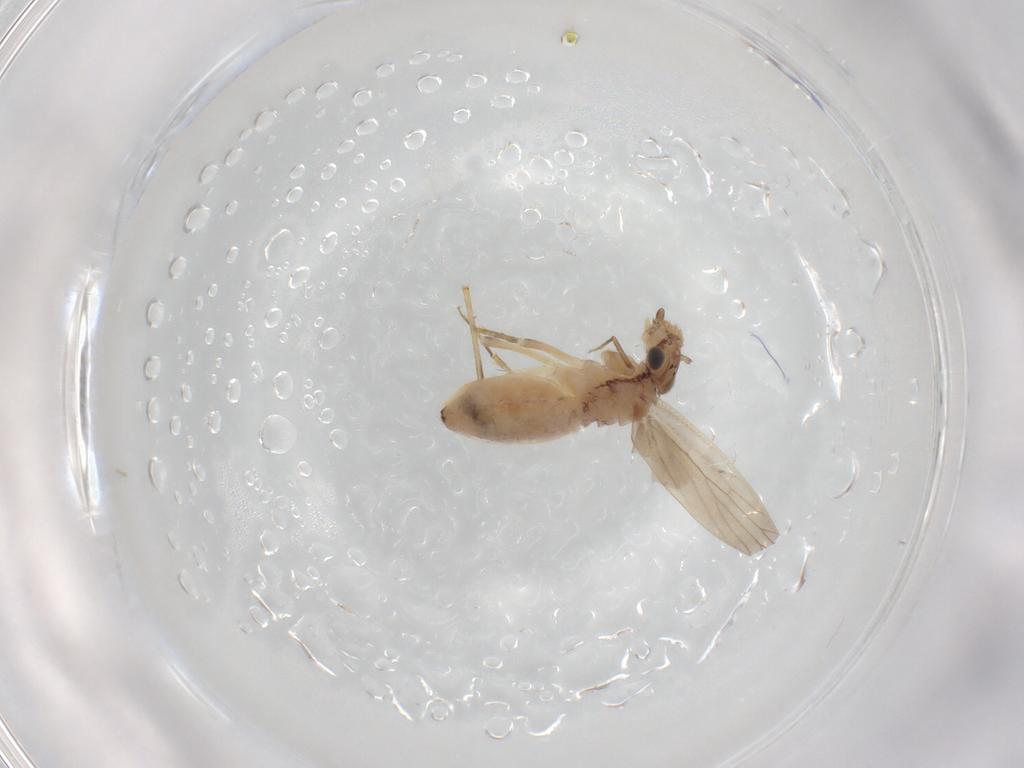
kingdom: Animalia
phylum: Arthropoda
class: Insecta
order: Psocodea
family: Lepidopsocidae
